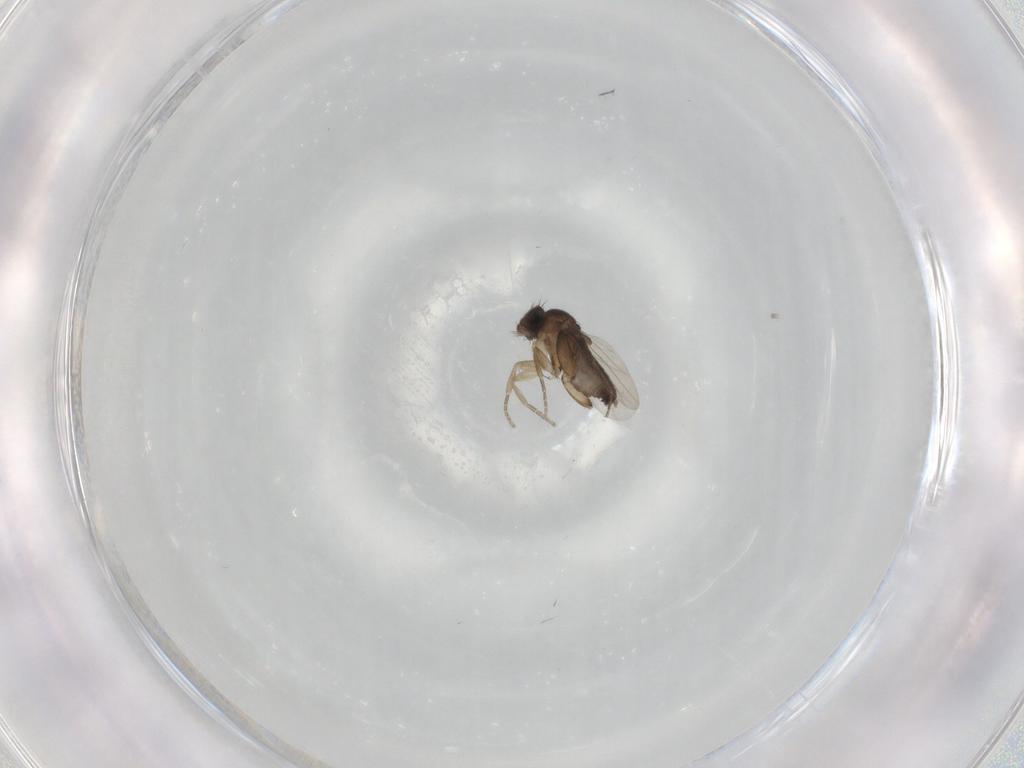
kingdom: Animalia
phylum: Arthropoda
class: Insecta
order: Diptera
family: Phoridae
